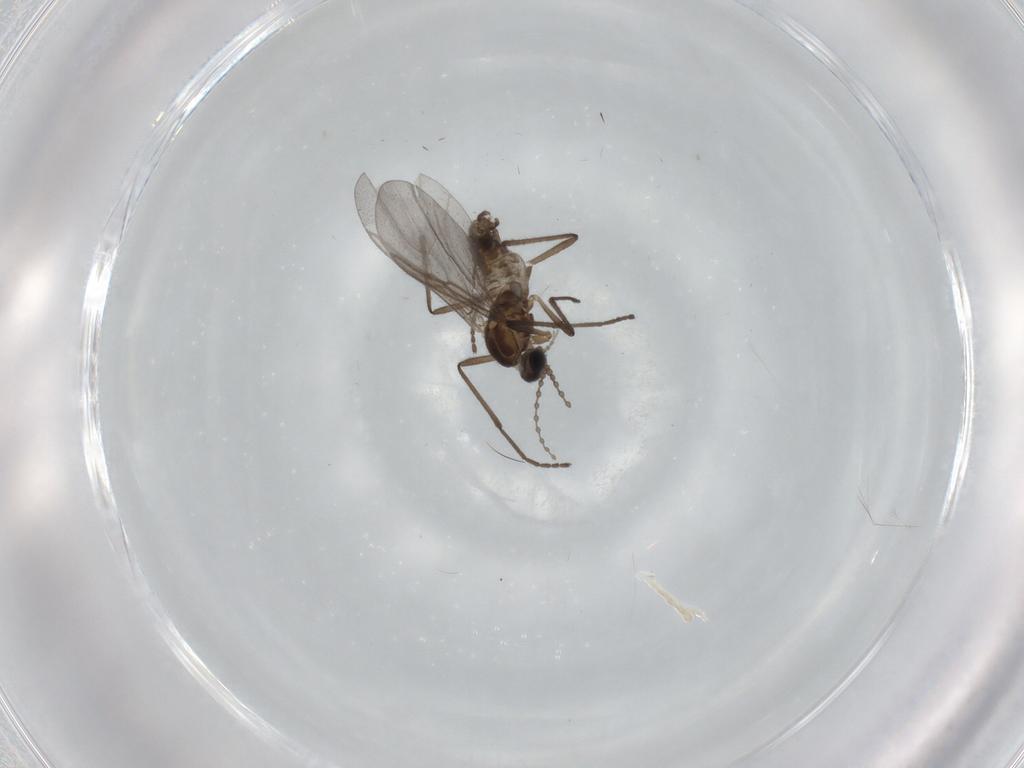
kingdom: Animalia
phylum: Arthropoda
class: Insecta
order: Diptera
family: Cecidomyiidae
